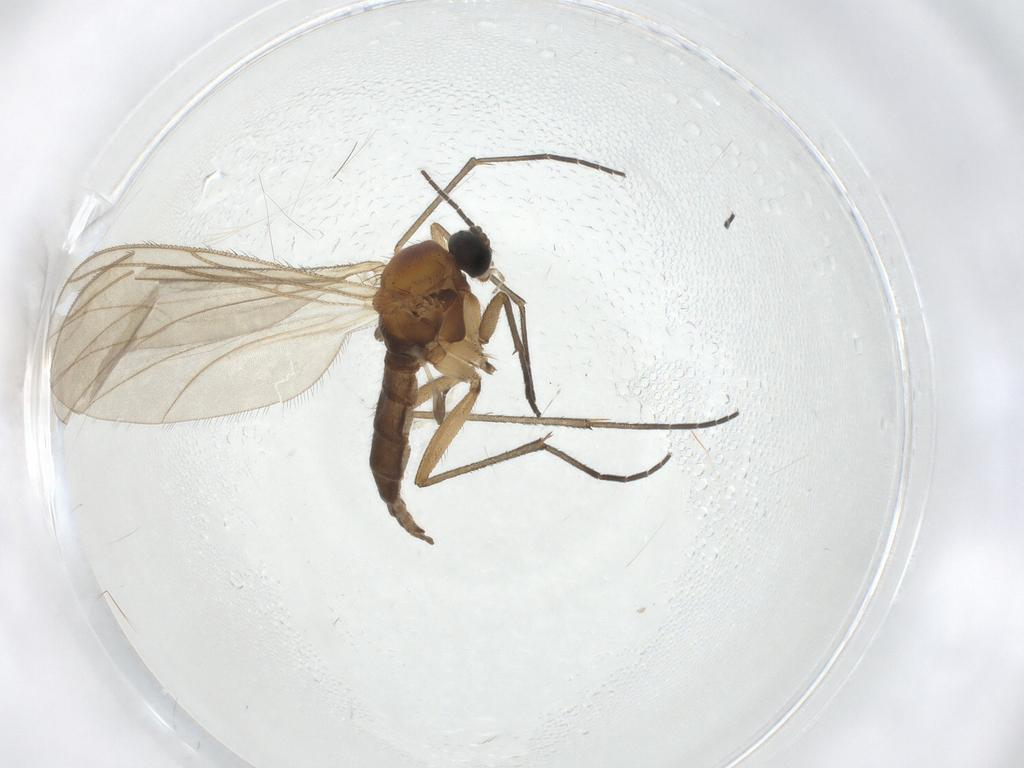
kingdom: Animalia
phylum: Arthropoda
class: Insecta
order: Diptera
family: Sciaridae
